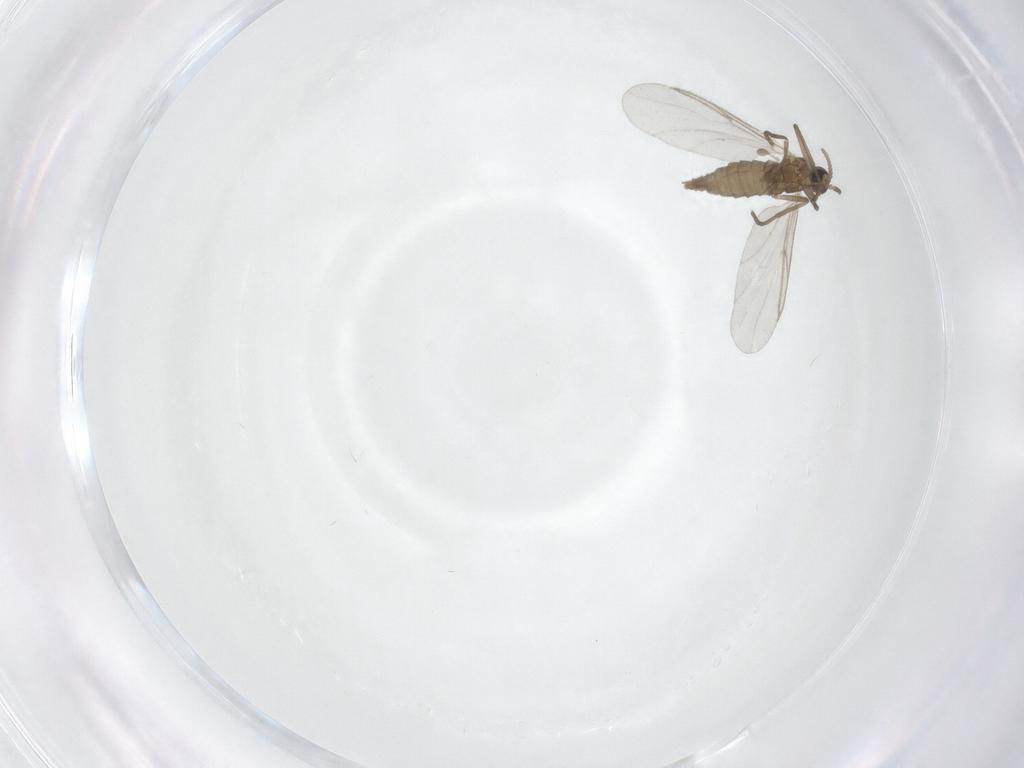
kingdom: Animalia
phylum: Arthropoda
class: Insecta
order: Diptera
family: Cecidomyiidae
